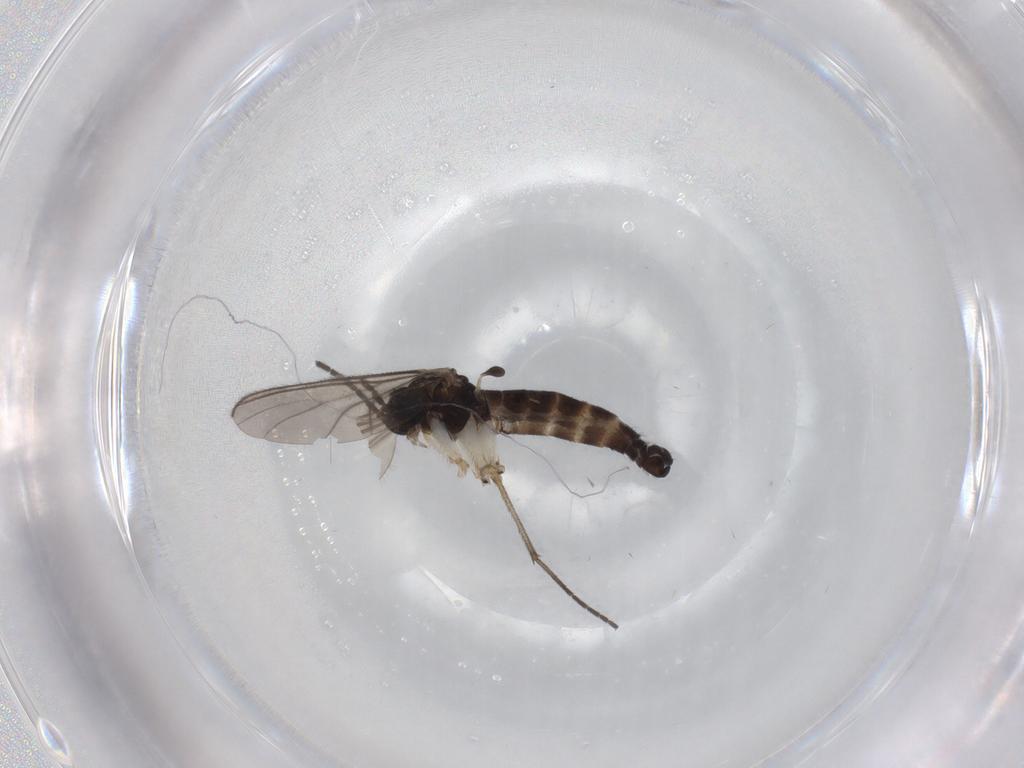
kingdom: Animalia
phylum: Arthropoda
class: Insecta
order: Diptera
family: Sciaridae
